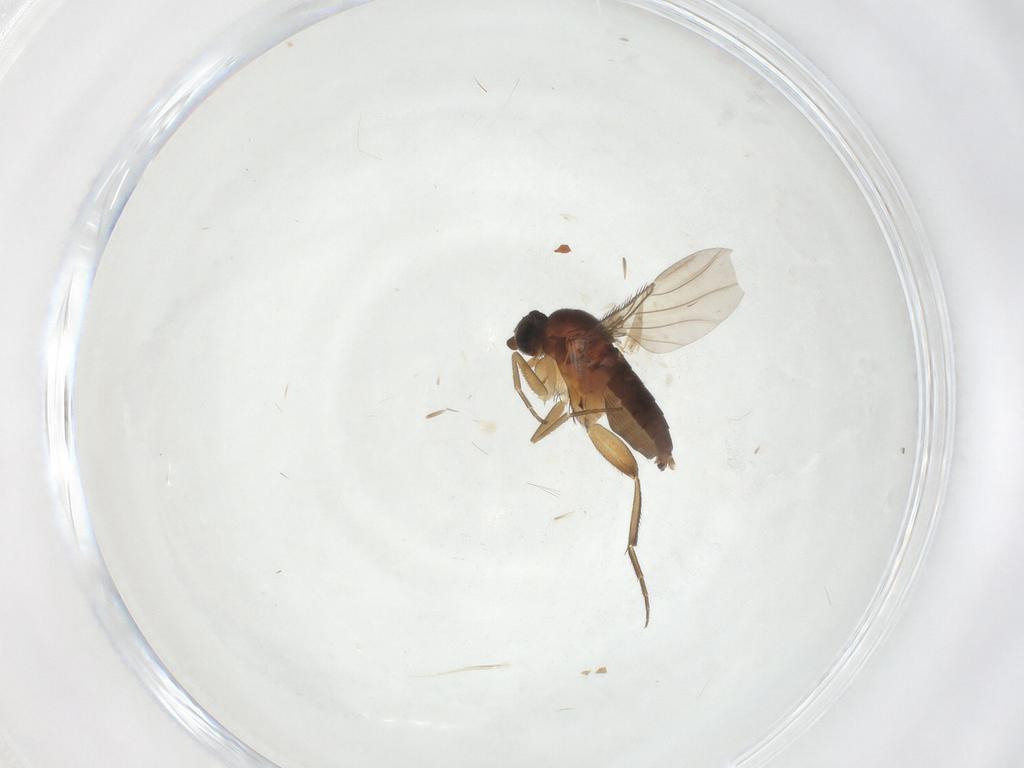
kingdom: Animalia
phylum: Arthropoda
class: Insecta
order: Diptera
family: Phoridae
